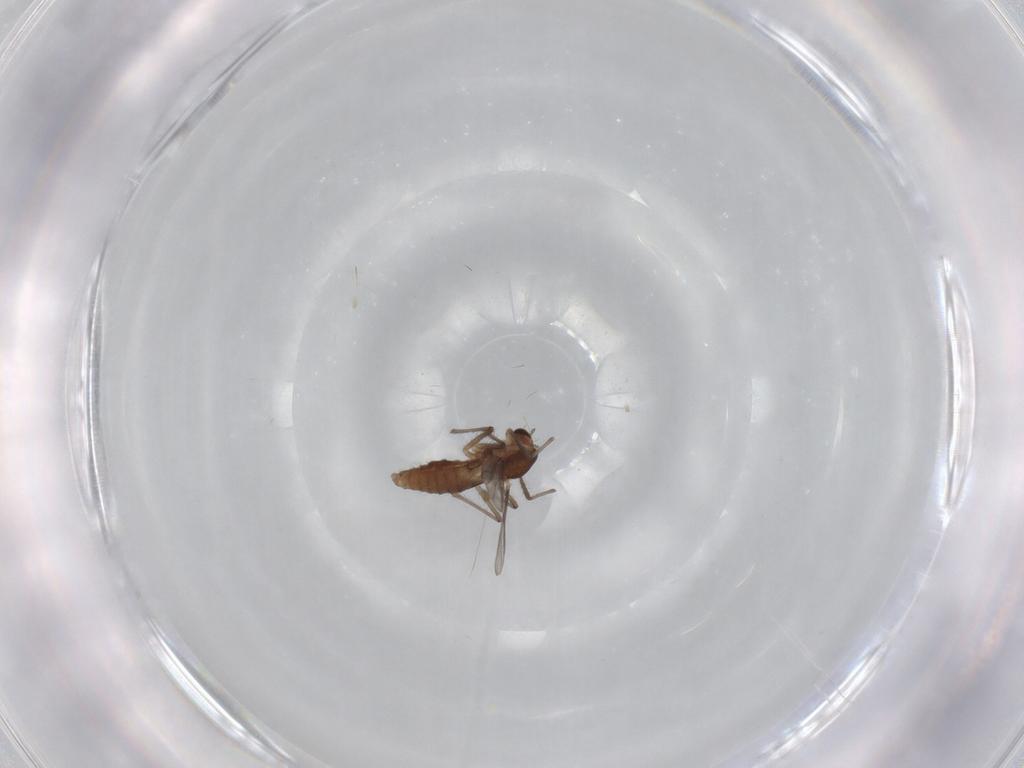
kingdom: Animalia
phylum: Arthropoda
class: Insecta
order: Diptera
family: Chironomidae
